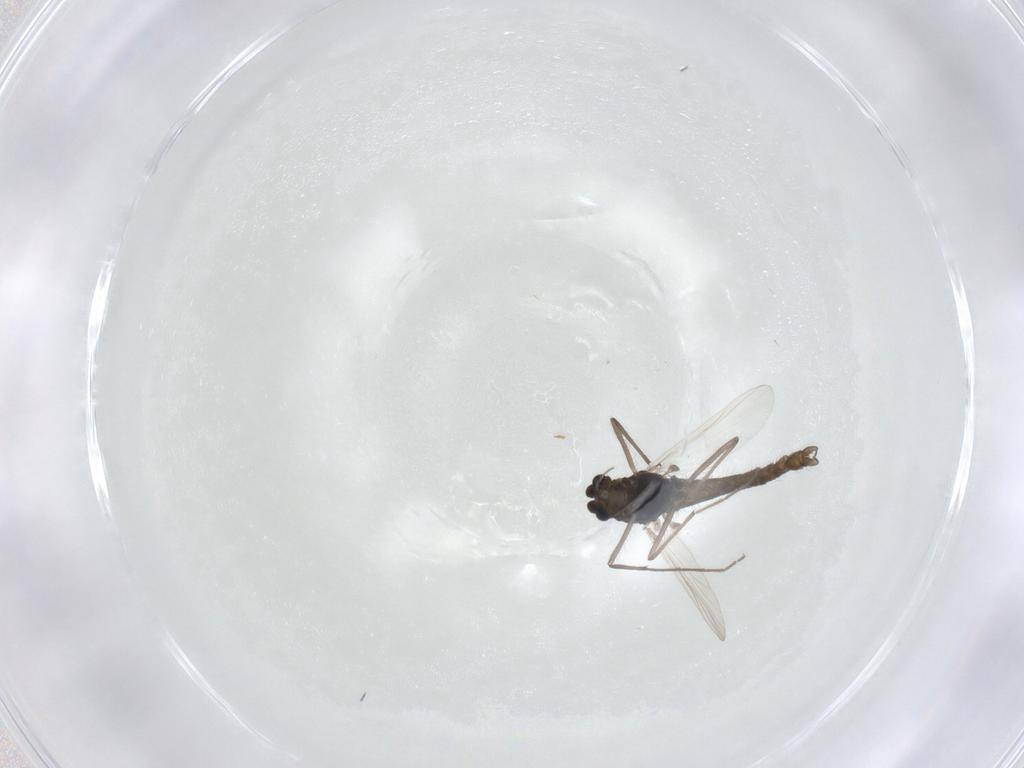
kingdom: Animalia
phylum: Arthropoda
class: Insecta
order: Diptera
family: Chironomidae
